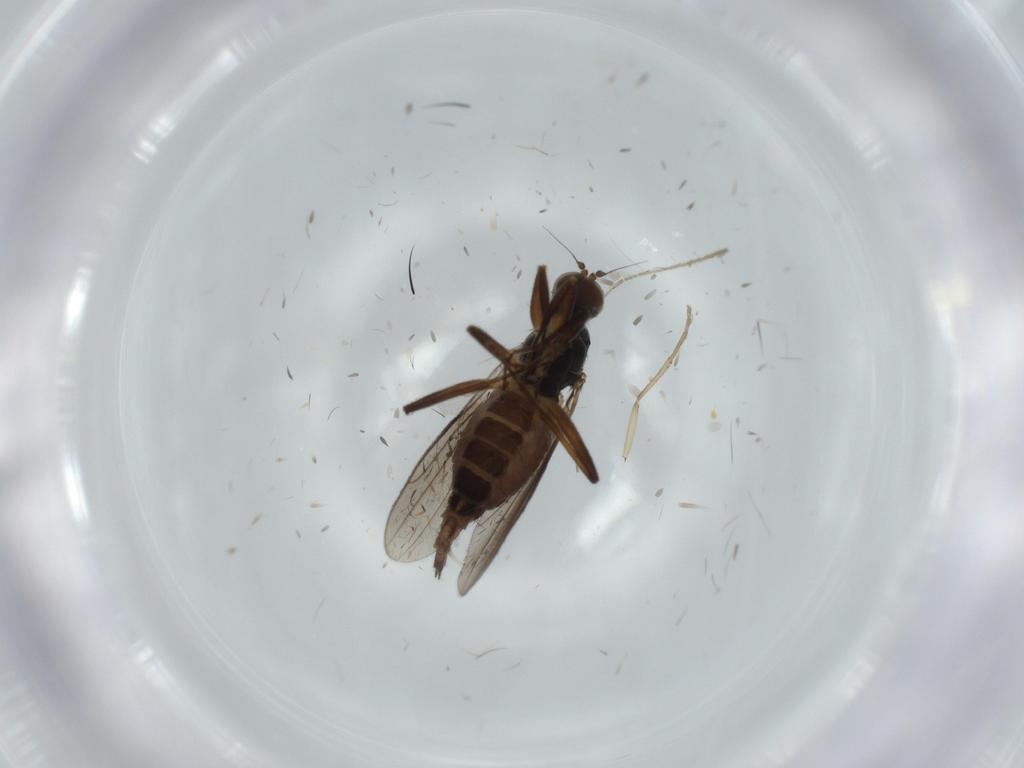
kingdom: Animalia
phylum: Arthropoda
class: Insecta
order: Diptera
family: Hybotidae
